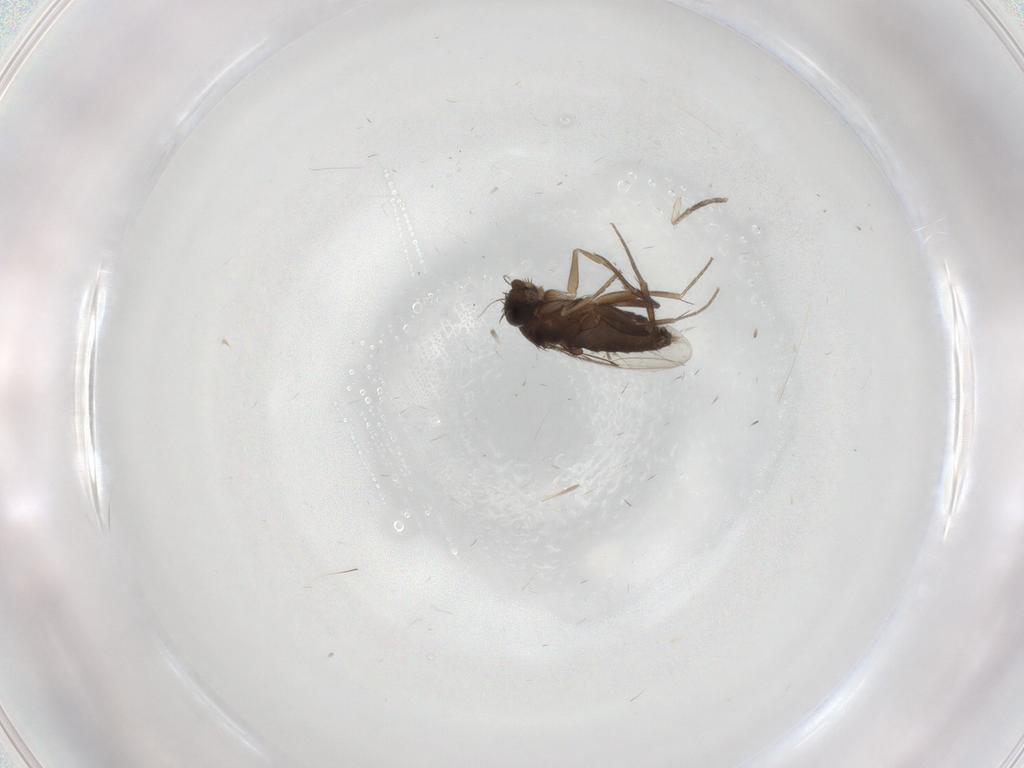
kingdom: Animalia
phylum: Arthropoda
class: Insecta
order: Diptera
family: Phoridae
